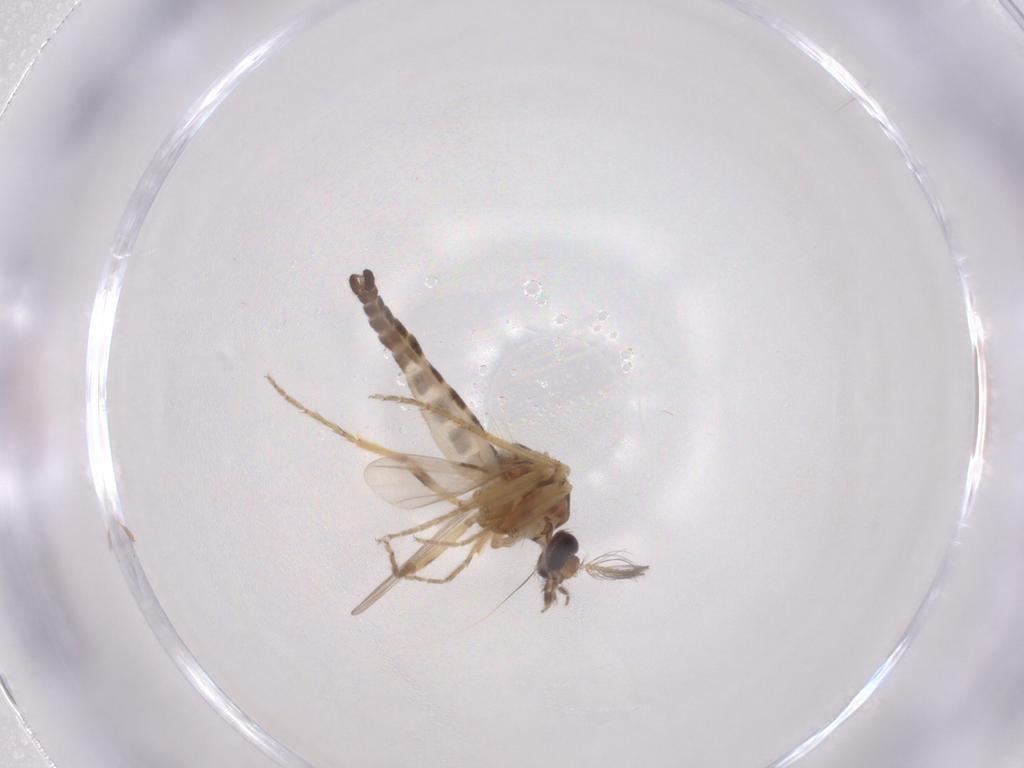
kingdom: Animalia
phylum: Arthropoda
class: Insecta
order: Diptera
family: Ceratopogonidae
